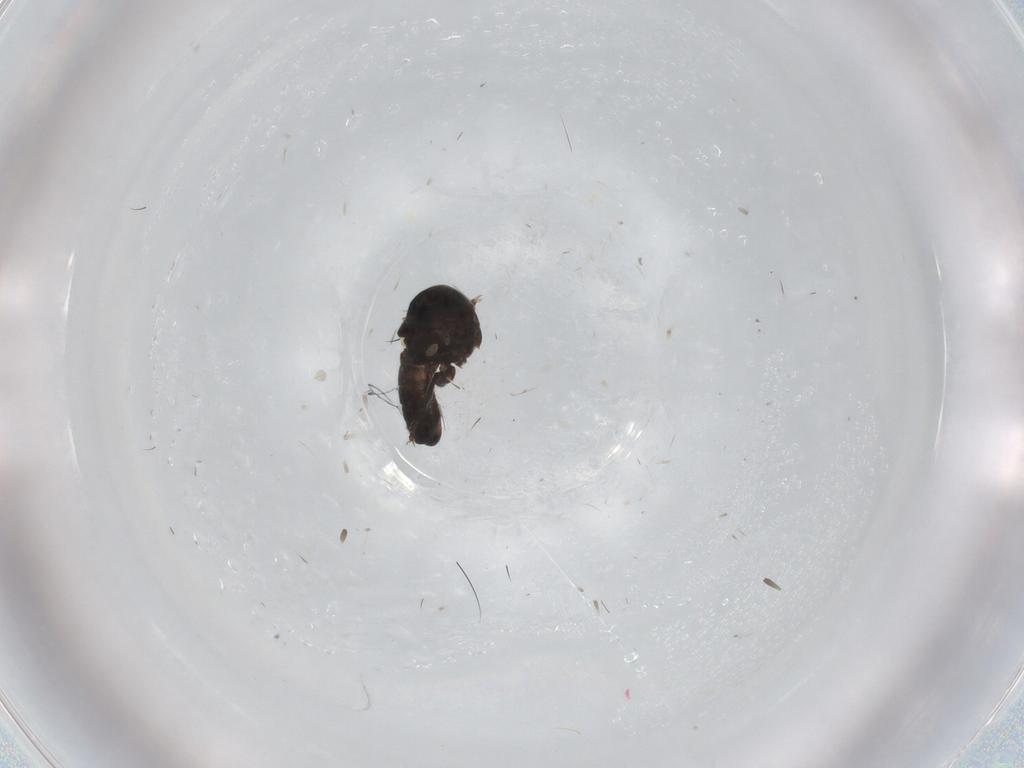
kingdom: Animalia
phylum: Arthropoda
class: Insecta
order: Diptera
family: Pipunculidae
